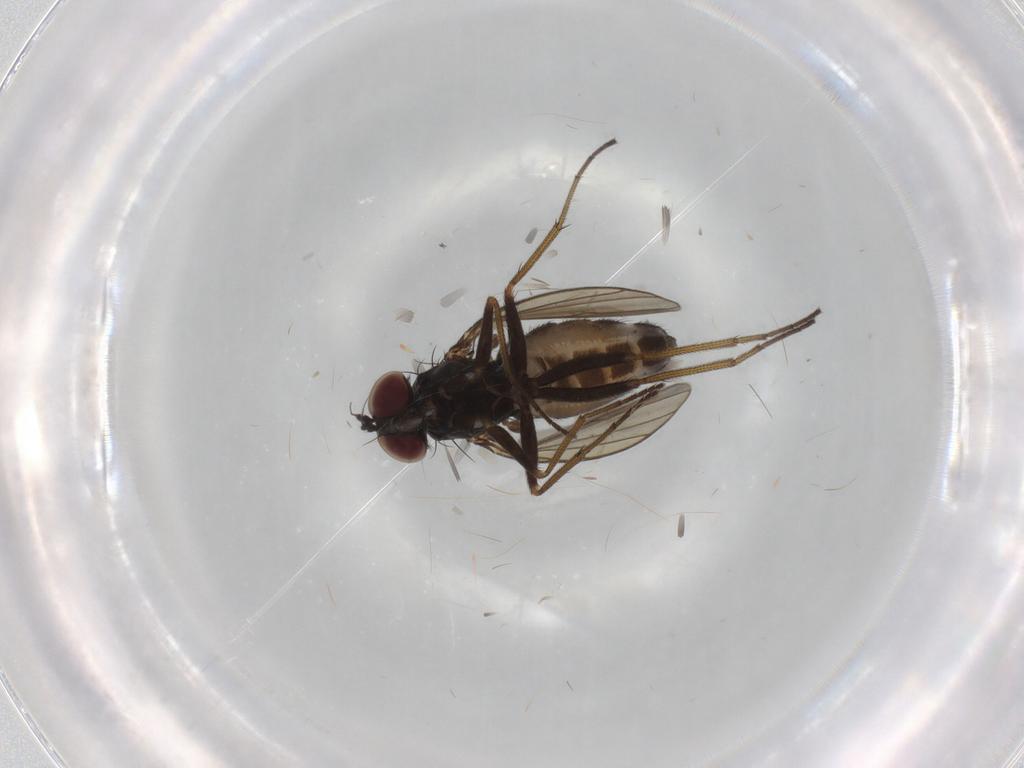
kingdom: Animalia
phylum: Arthropoda
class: Insecta
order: Diptera
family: Dolichopodidae
